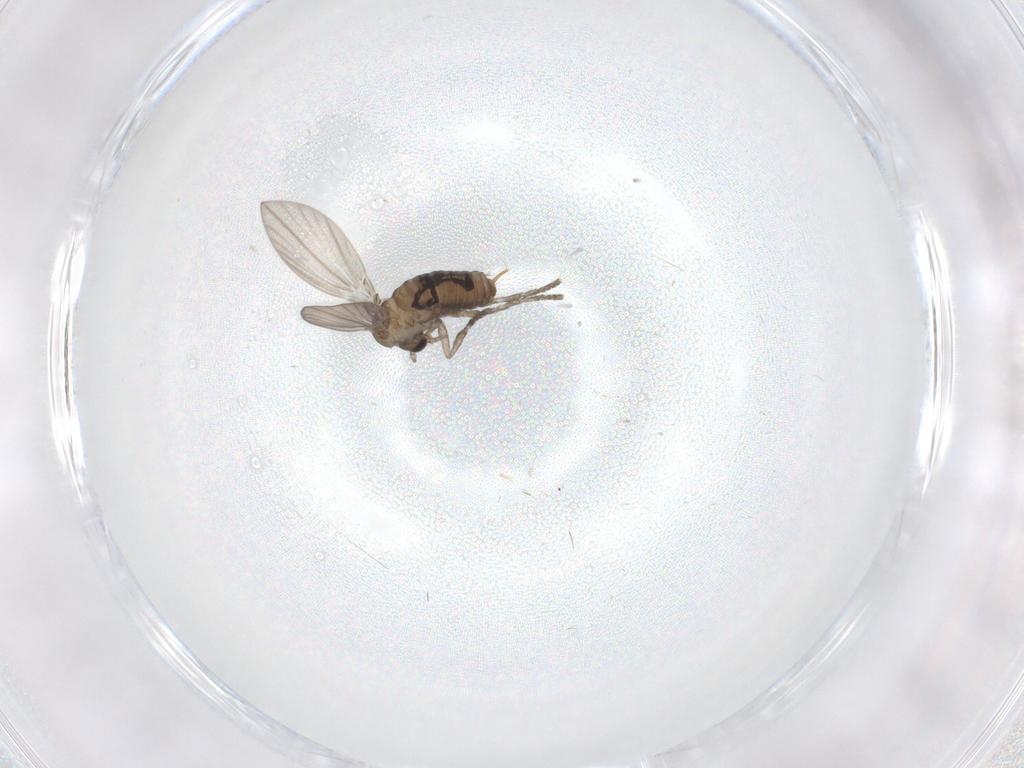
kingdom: Animalia
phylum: Arthropoda
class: Insecta
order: Diptera
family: Psychodidae
